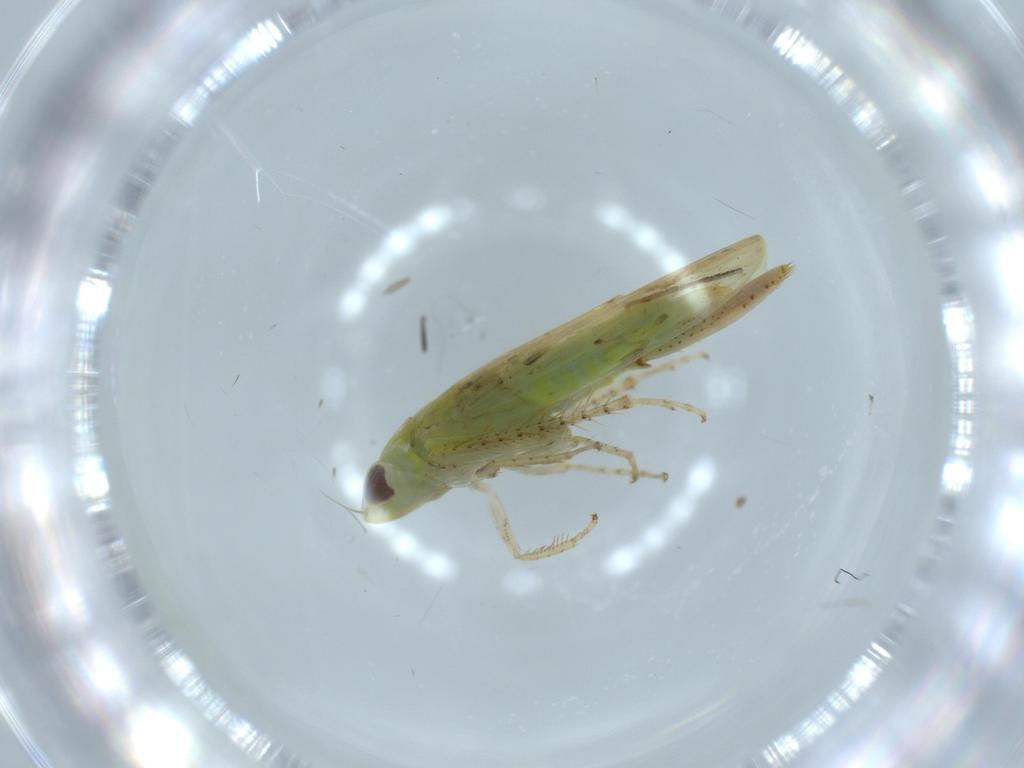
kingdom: Animalia
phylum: Arthropoda
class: Insecta
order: Hemiptera
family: Cicadellidae
